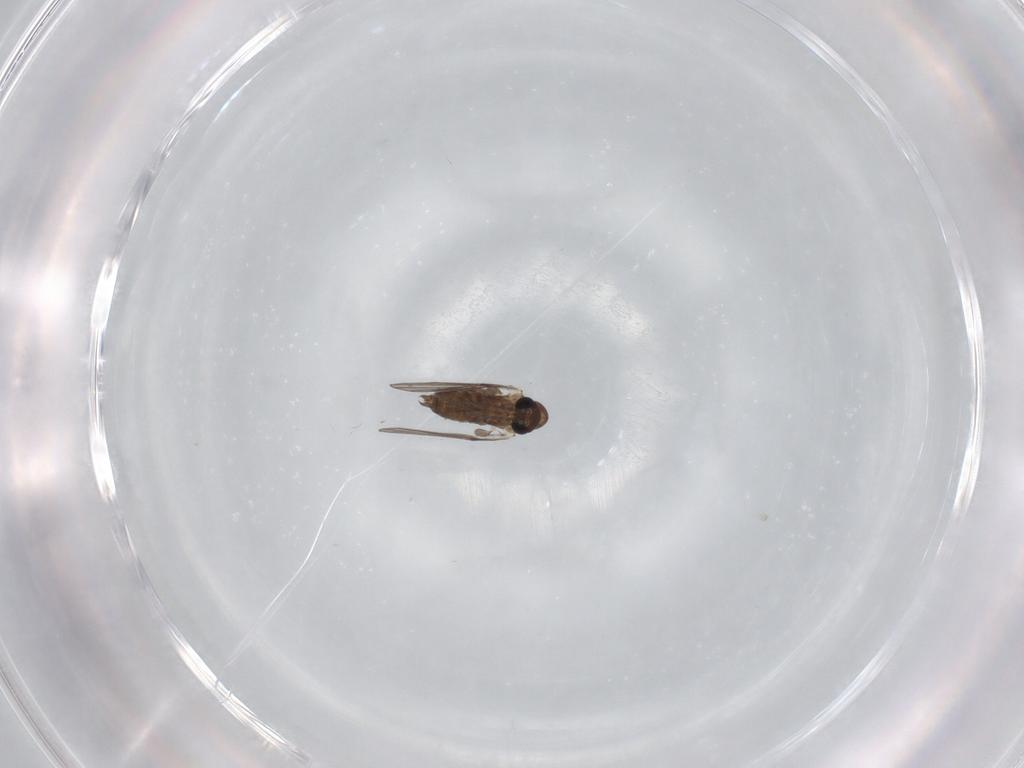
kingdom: Animalia
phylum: Arthropoda
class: Insecta
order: Diptera
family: Psychodidae
